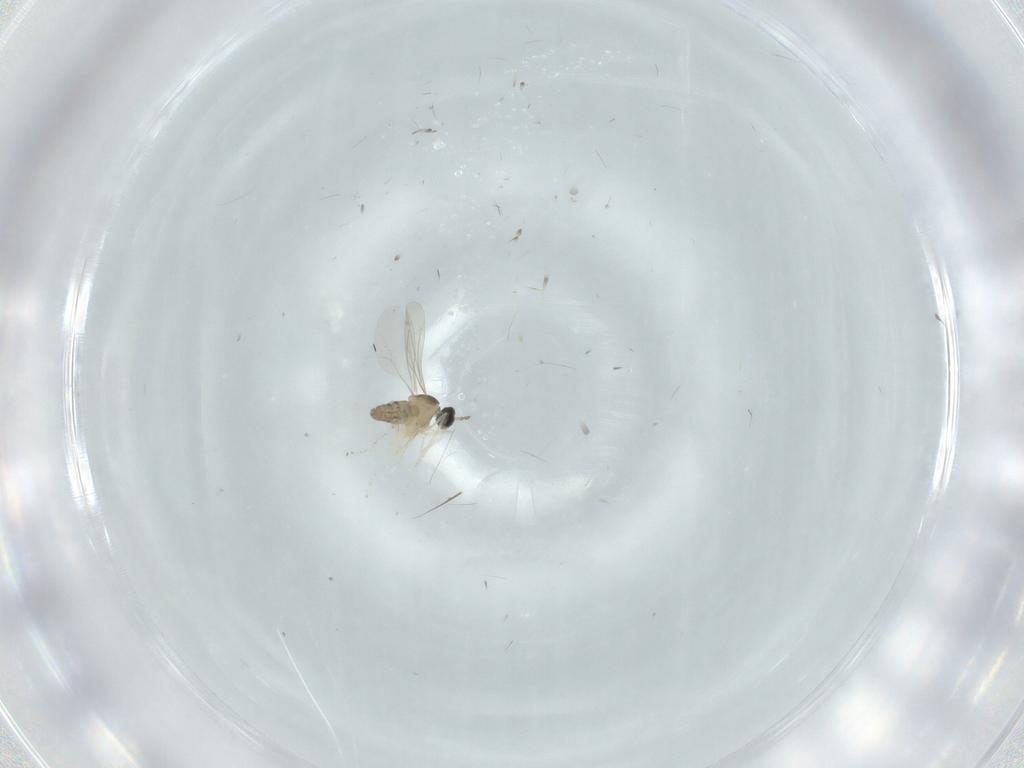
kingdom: Animalia
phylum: Arthropoda
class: Insecta
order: Diptera
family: Cecidomyiidae
